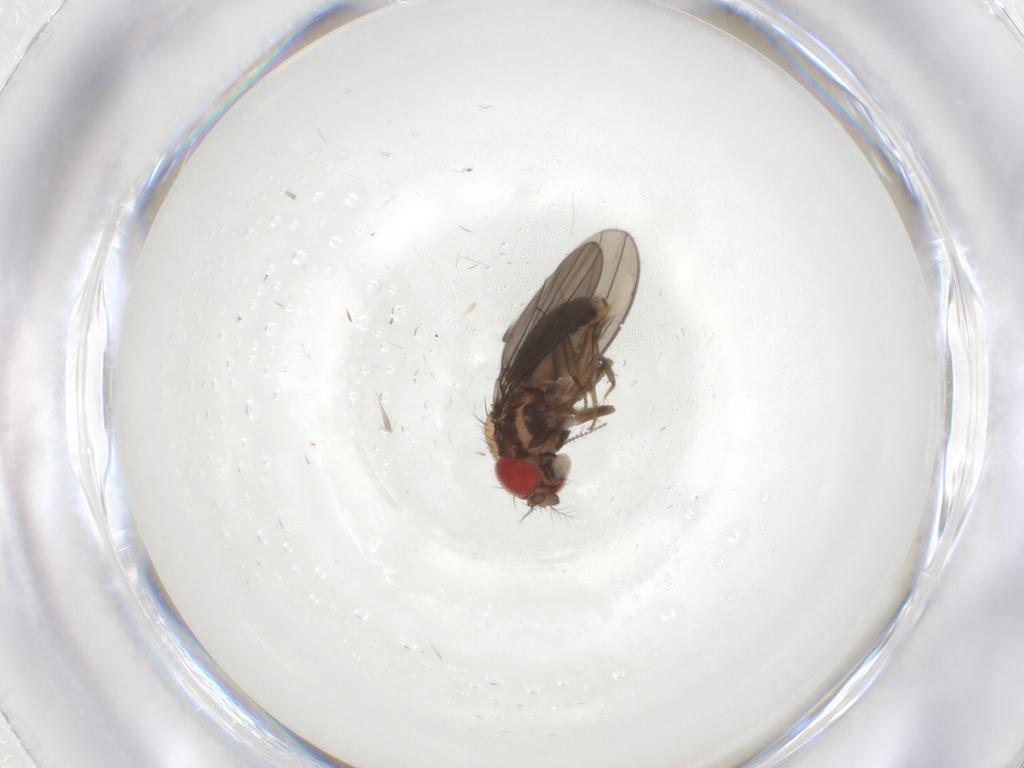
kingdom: Animalia
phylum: Arthropoda
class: Insecta
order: Diptera
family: Drosophilidae
